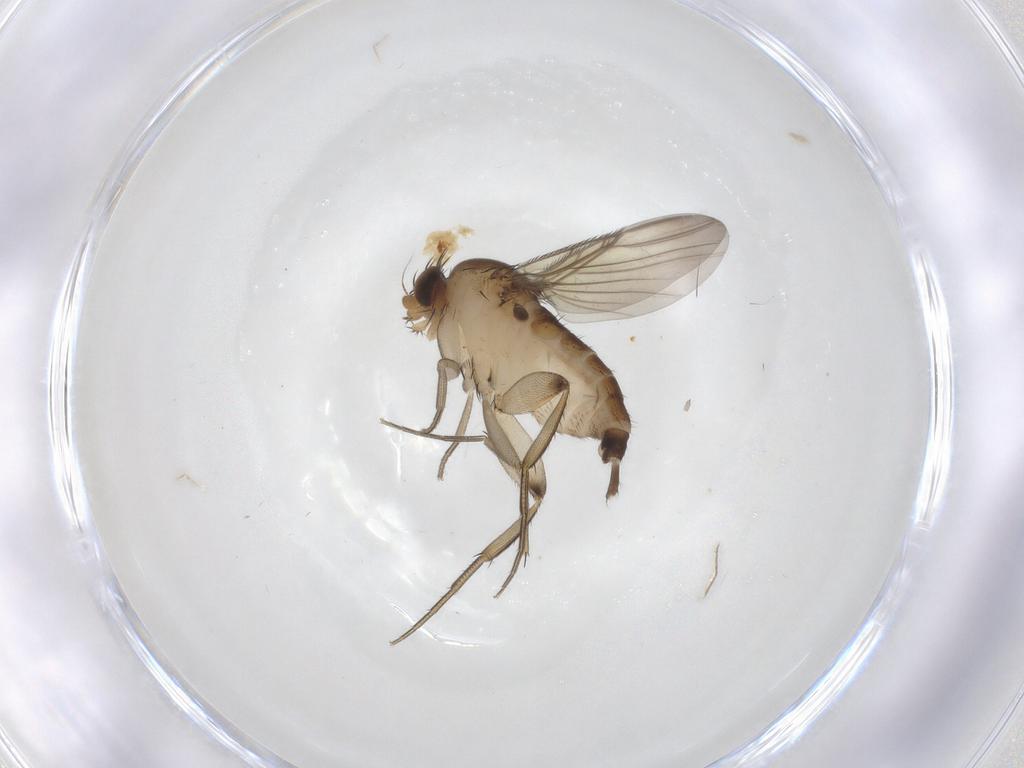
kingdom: Animalia
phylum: Arthropoda
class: Insecta
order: Diptera
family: Phoridae
